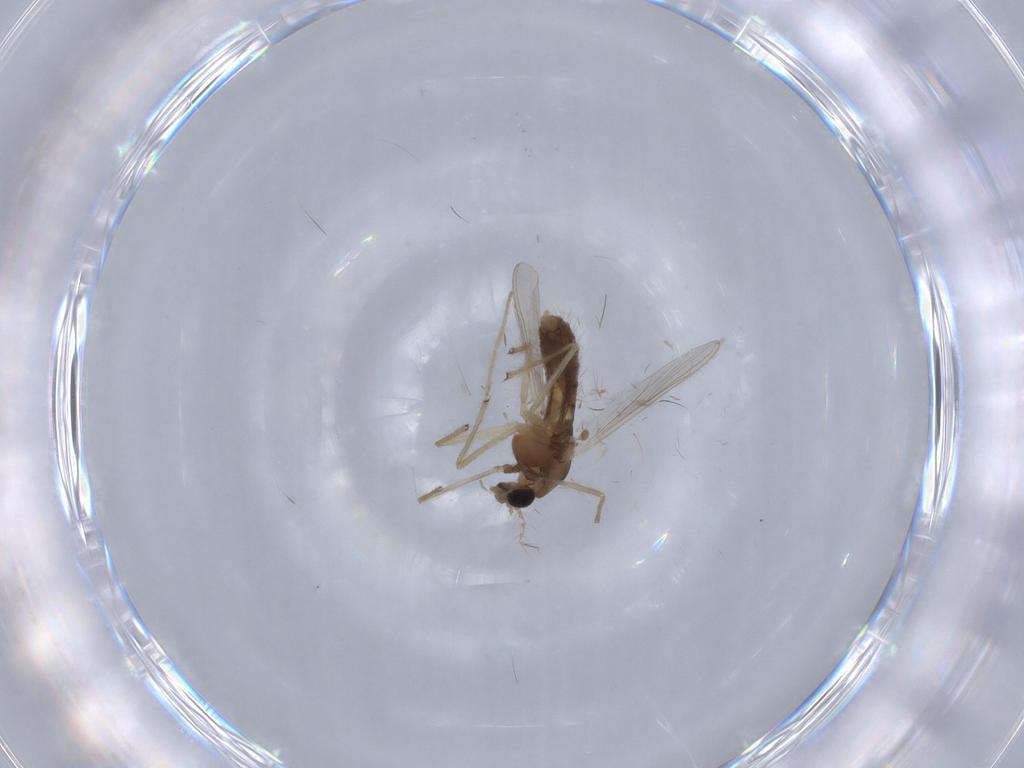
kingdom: Animalia
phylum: Arthropoda
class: Insecta
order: Diptera
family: Chironomidae
